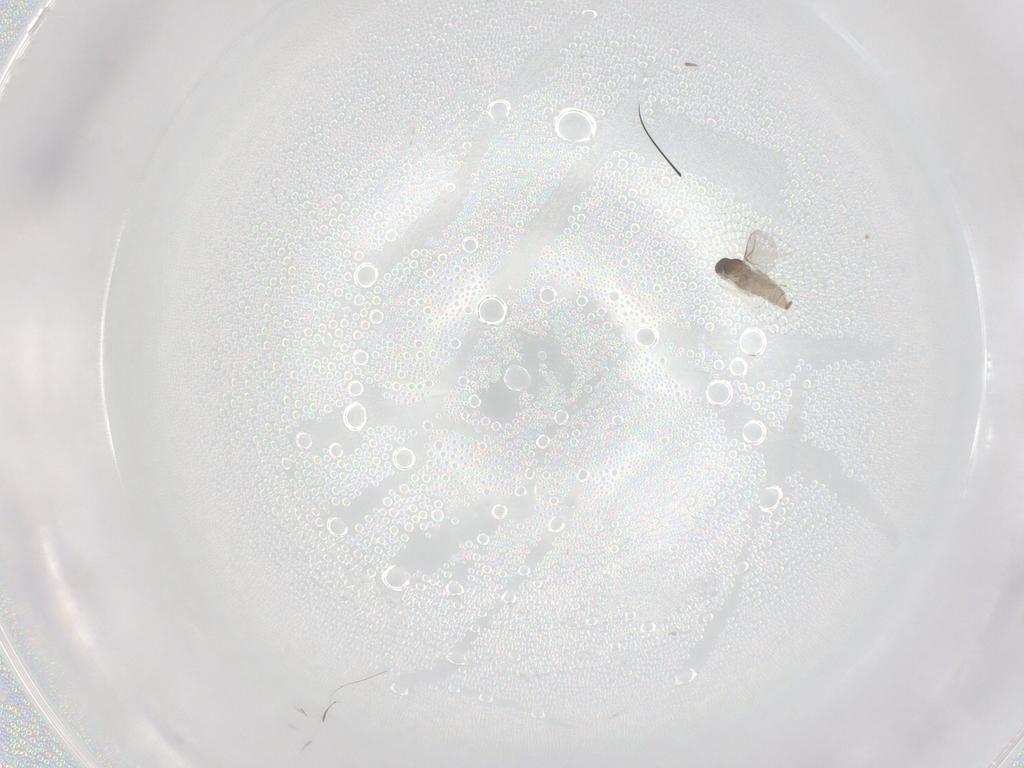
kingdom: Animalia
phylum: Arthropoda
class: Insecta
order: Diptera
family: Cecidomyiidae
